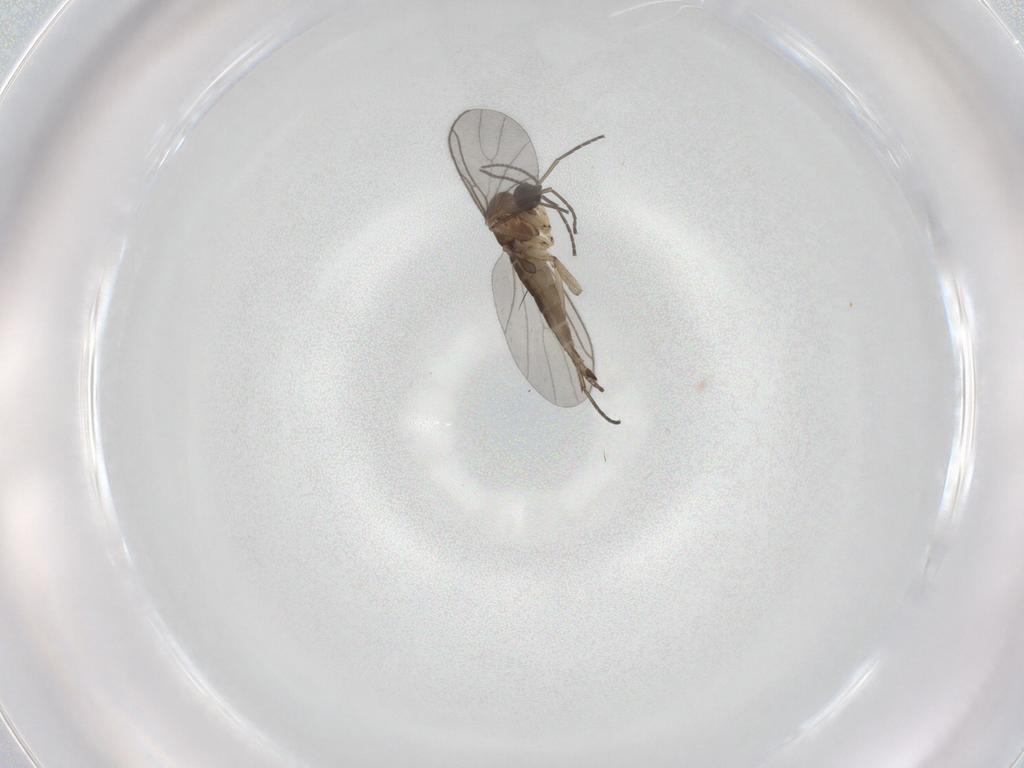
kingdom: Animalia
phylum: Arthropoda
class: Insecta
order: Diptera
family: Sciaridae
